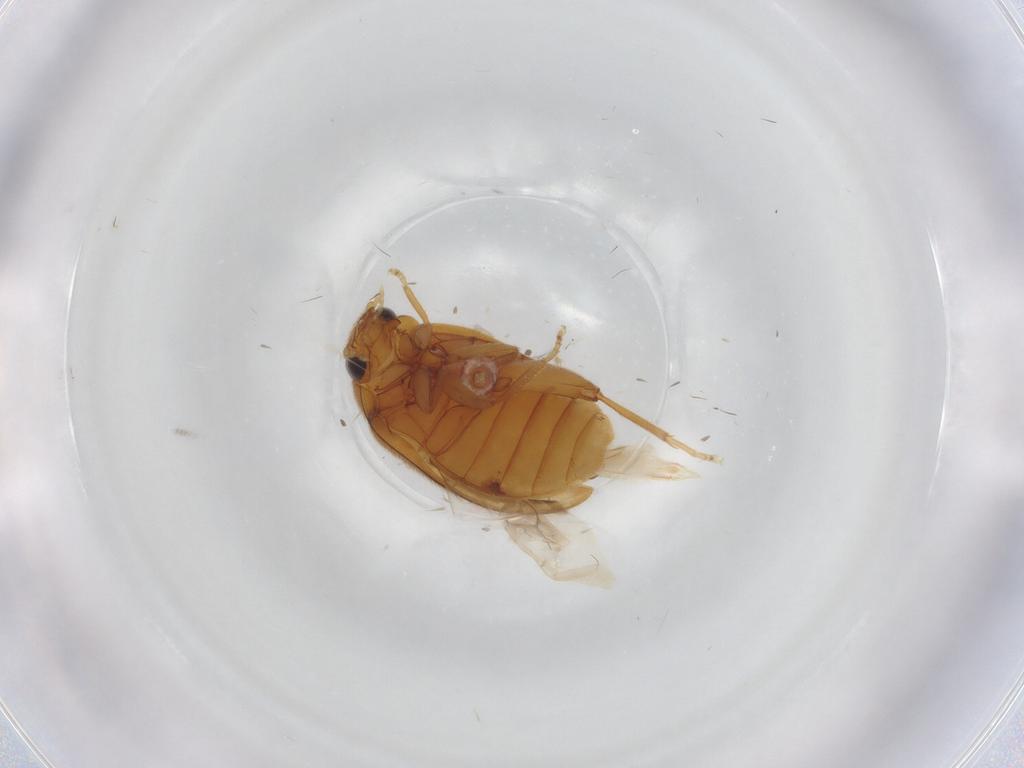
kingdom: Animalia
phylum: Arthropoda
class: Insecta
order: Coleoptera
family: Scirtidae
